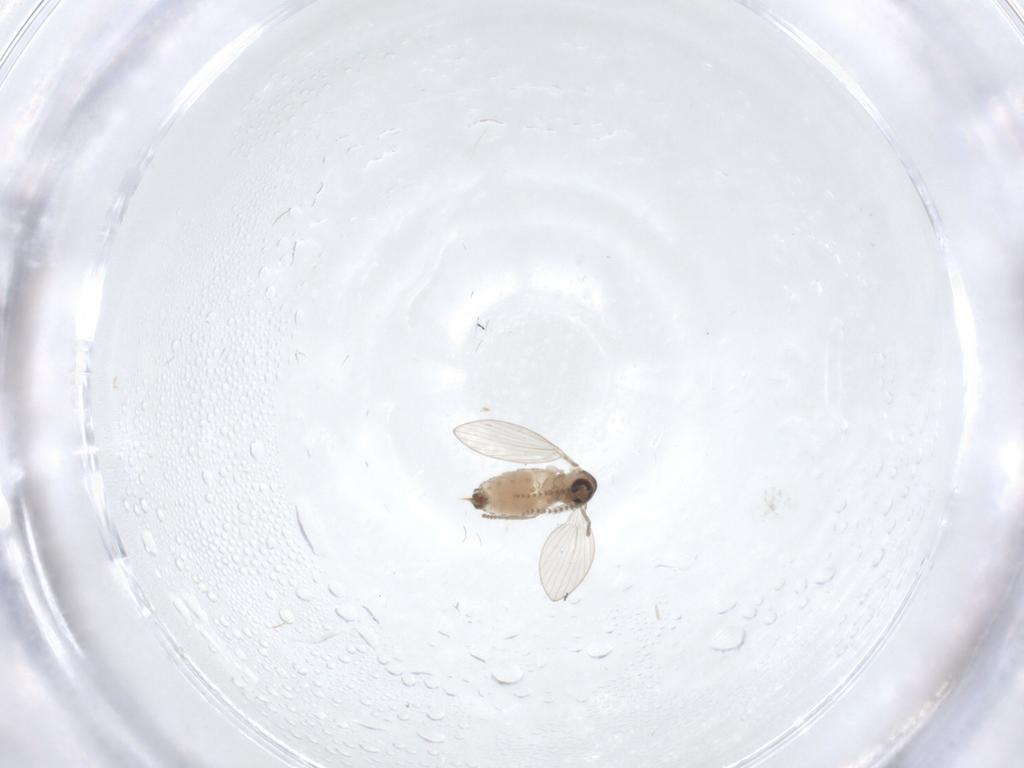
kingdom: Animalia
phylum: Arthropoda
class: Insecta
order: Diptera
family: Psychodidae
